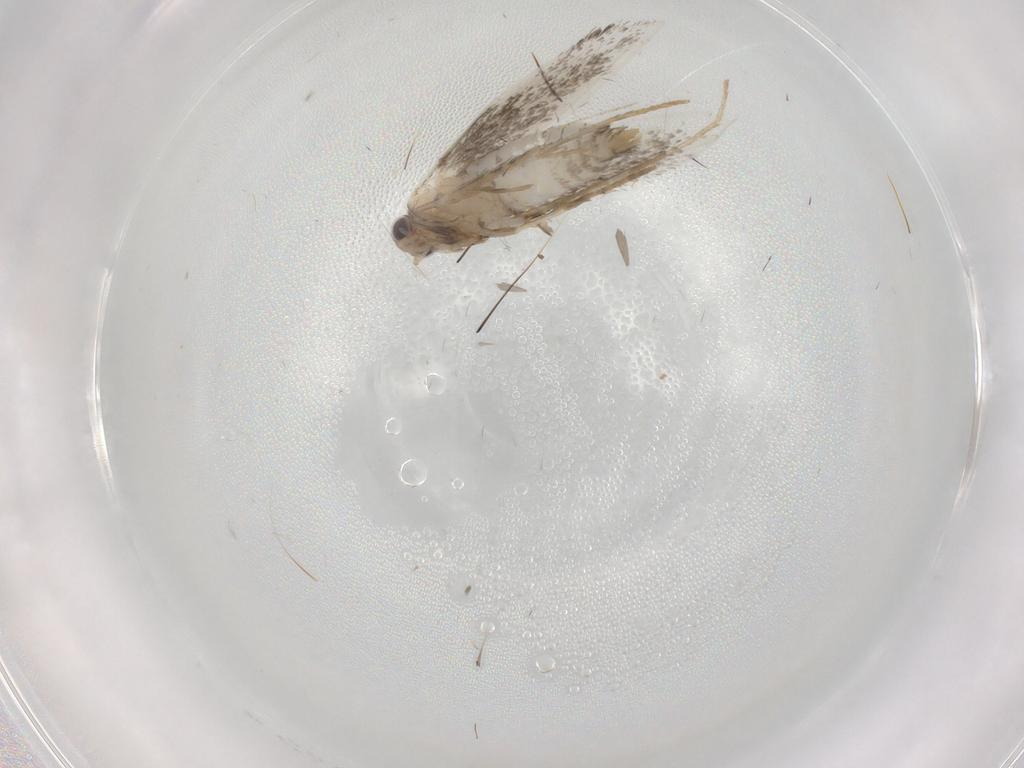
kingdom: Animalia
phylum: Arthropoda
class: Insecta
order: Lepidoptera
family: Tineidae
